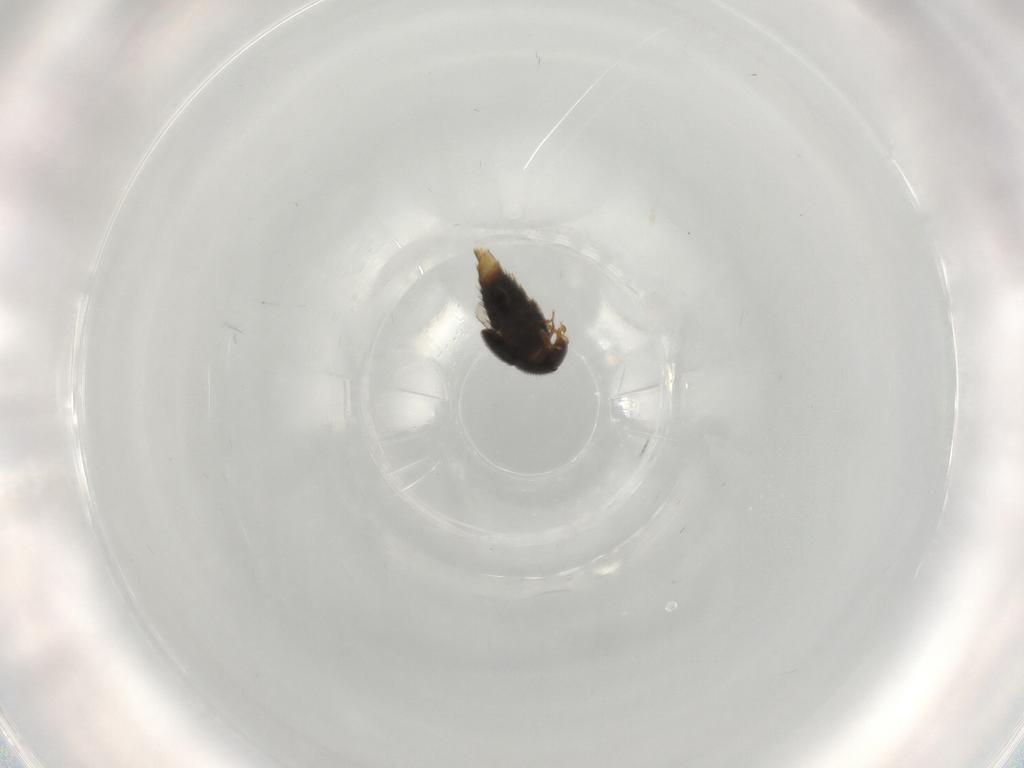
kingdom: Animalia
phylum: Arthropoda
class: Insecta
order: Coleoptera
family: Staphylinidae
